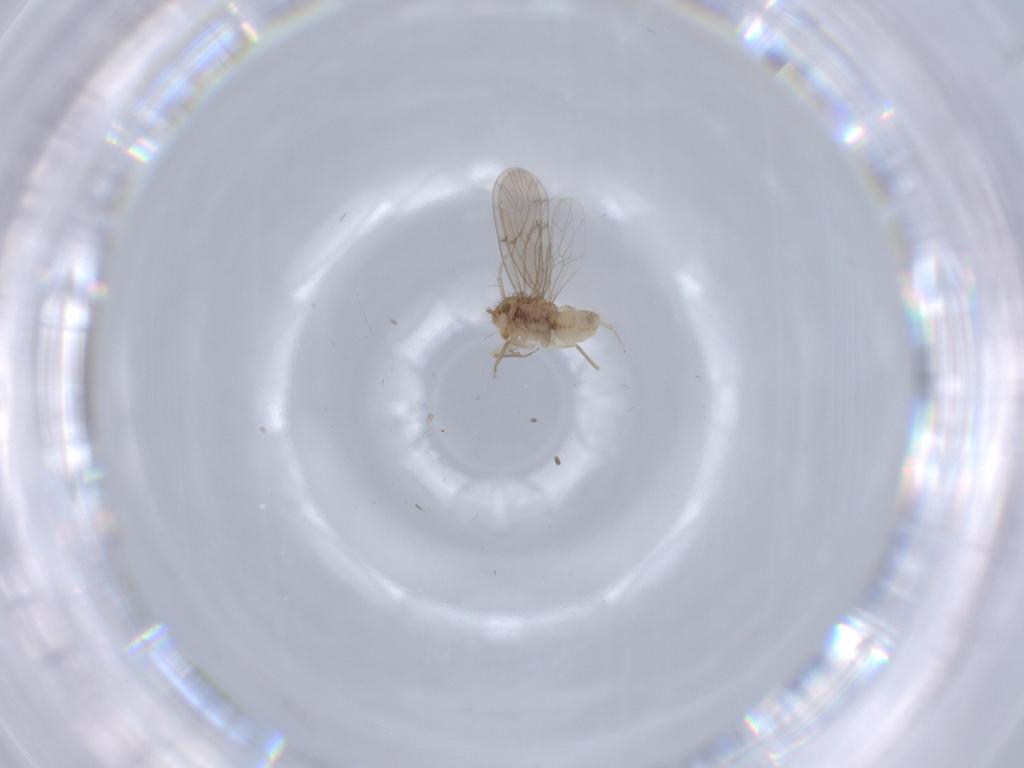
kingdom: Animalia
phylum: Arthropoda
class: Insecta
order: Psocodea
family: Ectopsocidae
